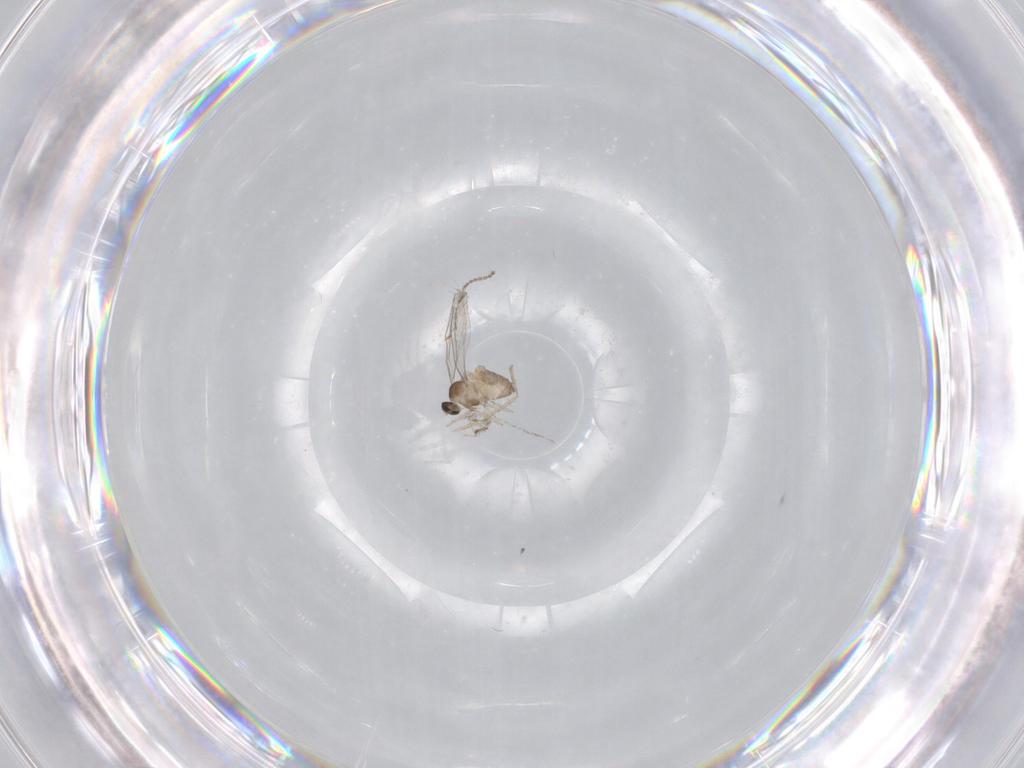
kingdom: Animalia
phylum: Arthropoda
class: Insecta
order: Diptera
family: Cecidomyiidae
